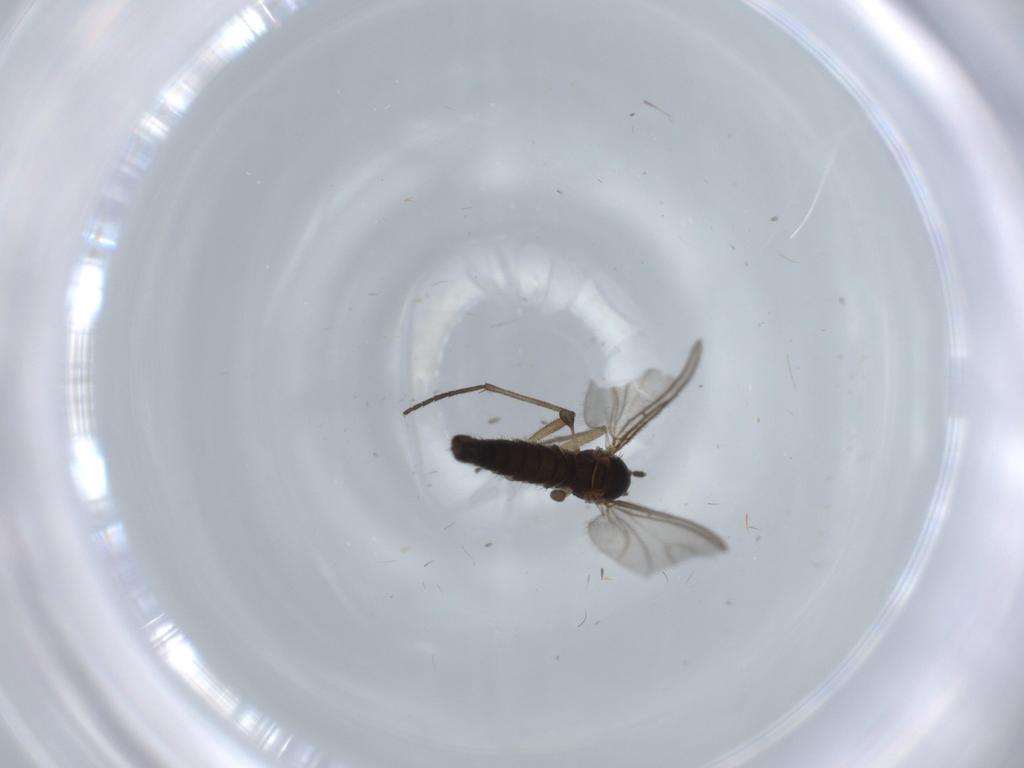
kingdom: Animalia
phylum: Arthropoda
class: Insecta
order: Diptera
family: Sciaridae
